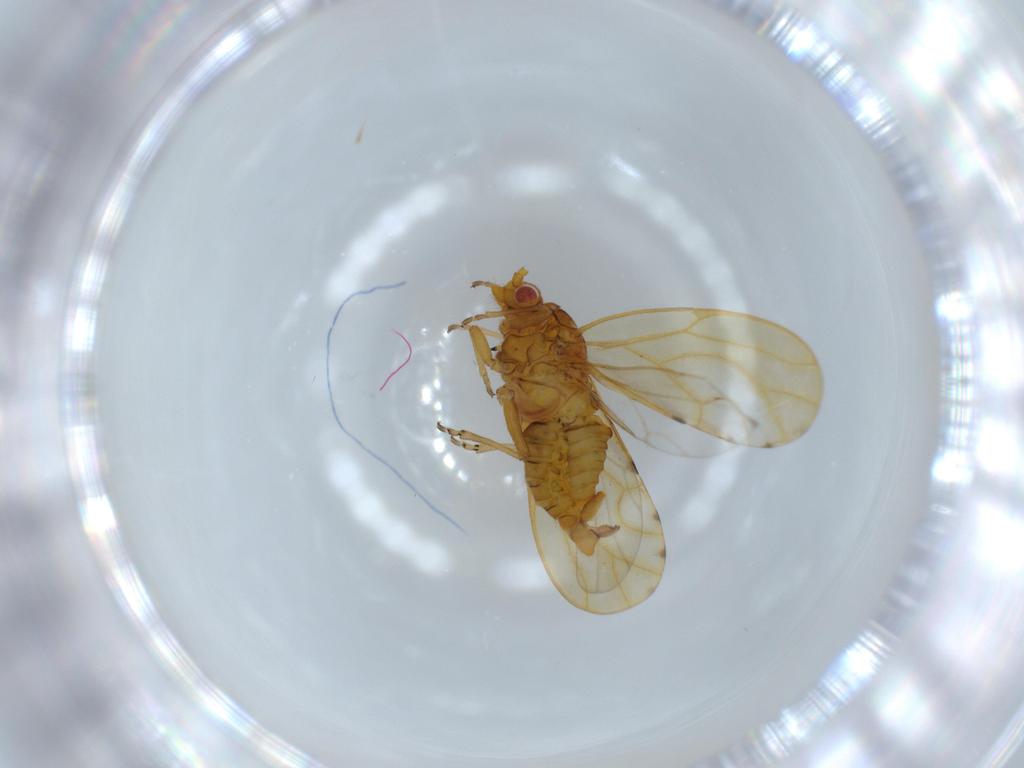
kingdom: Animalia
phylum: Arthropoda
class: Insecta
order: Hemiptera
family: Psylloidea_incertae_sedis
